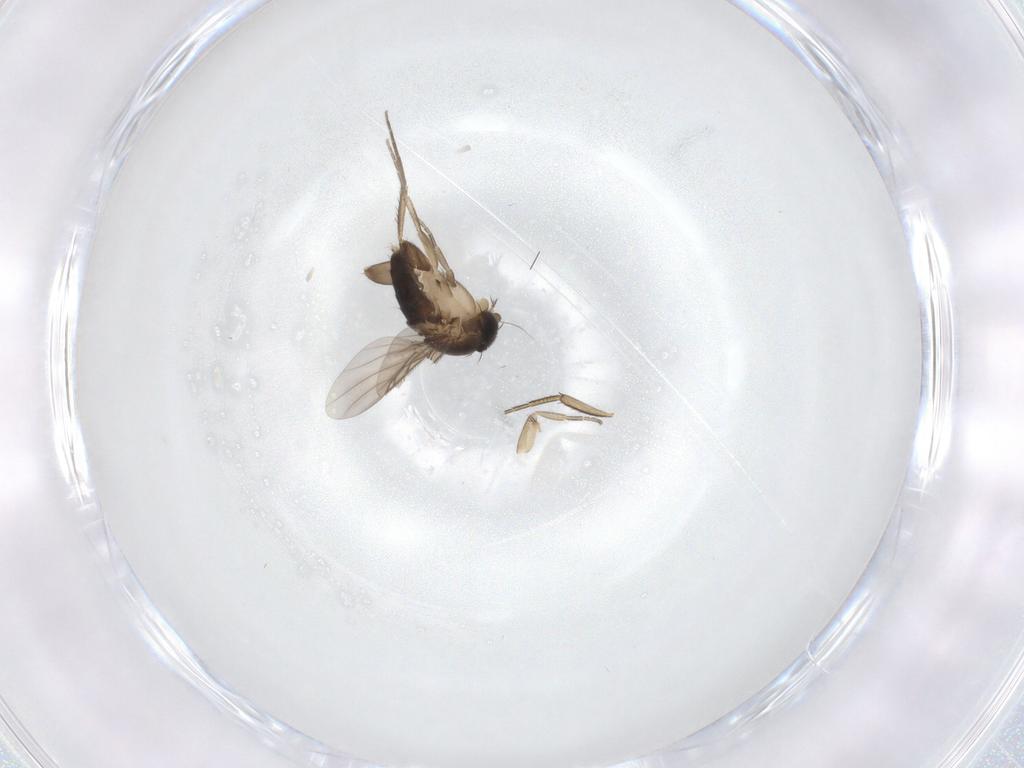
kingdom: Animalia
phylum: Arthropoda
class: Insecta
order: Diptera
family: Phoridae
